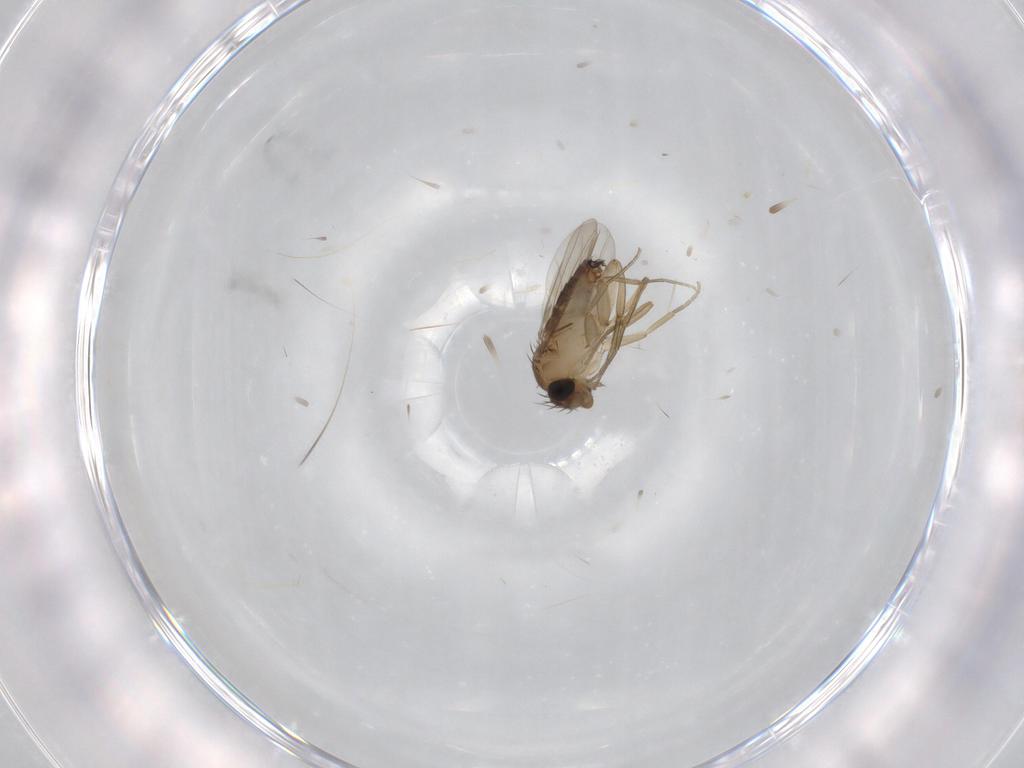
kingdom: Animalia
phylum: Arthropoda
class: Insecta
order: Diptera
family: Phoridae
